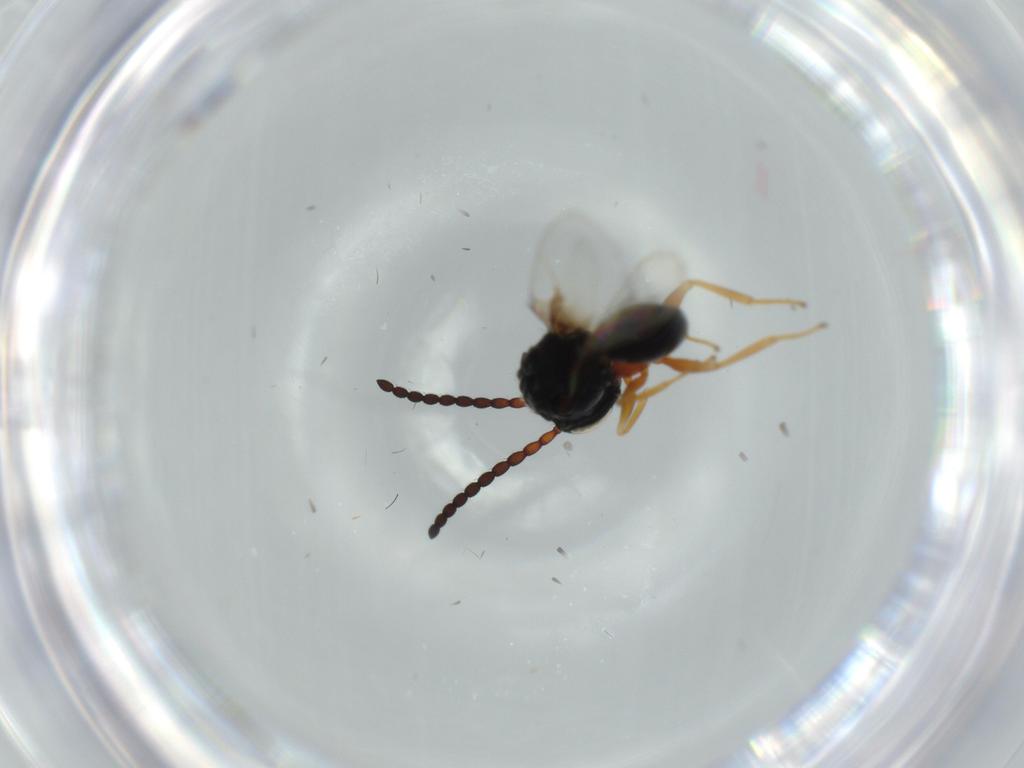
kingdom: Animalia
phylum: Arthropoda
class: Insecta
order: Hymenoptera
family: Figitidae
